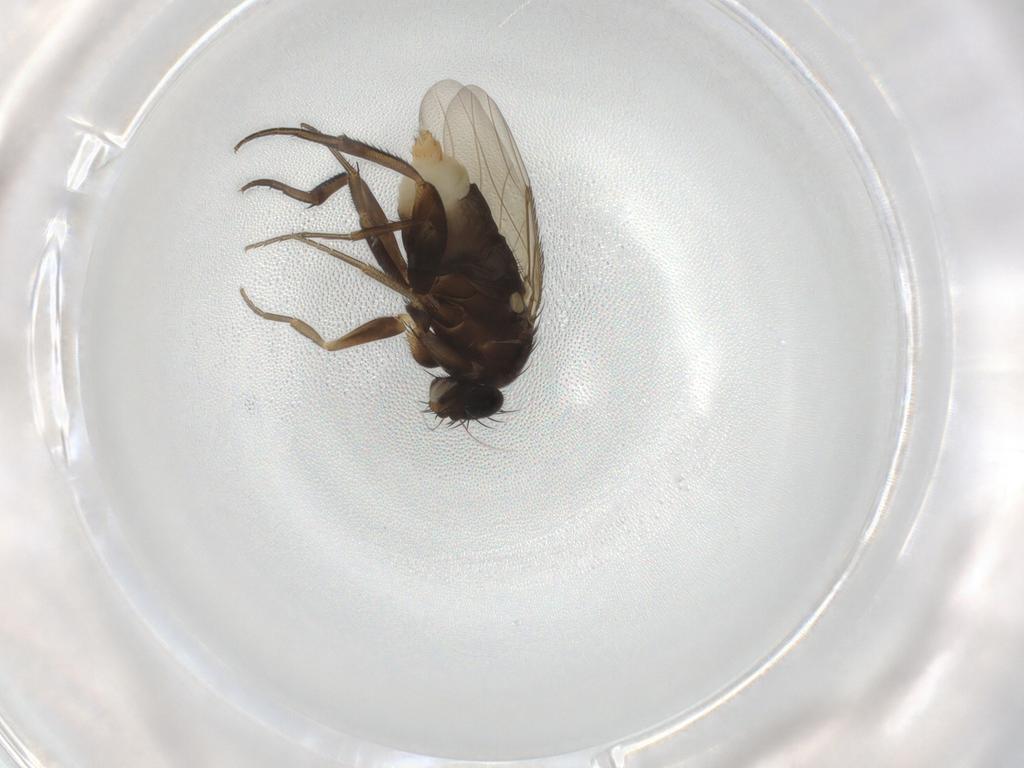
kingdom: Animalia
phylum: Arthropoda
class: Insecta
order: Diptera
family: Phoridae
